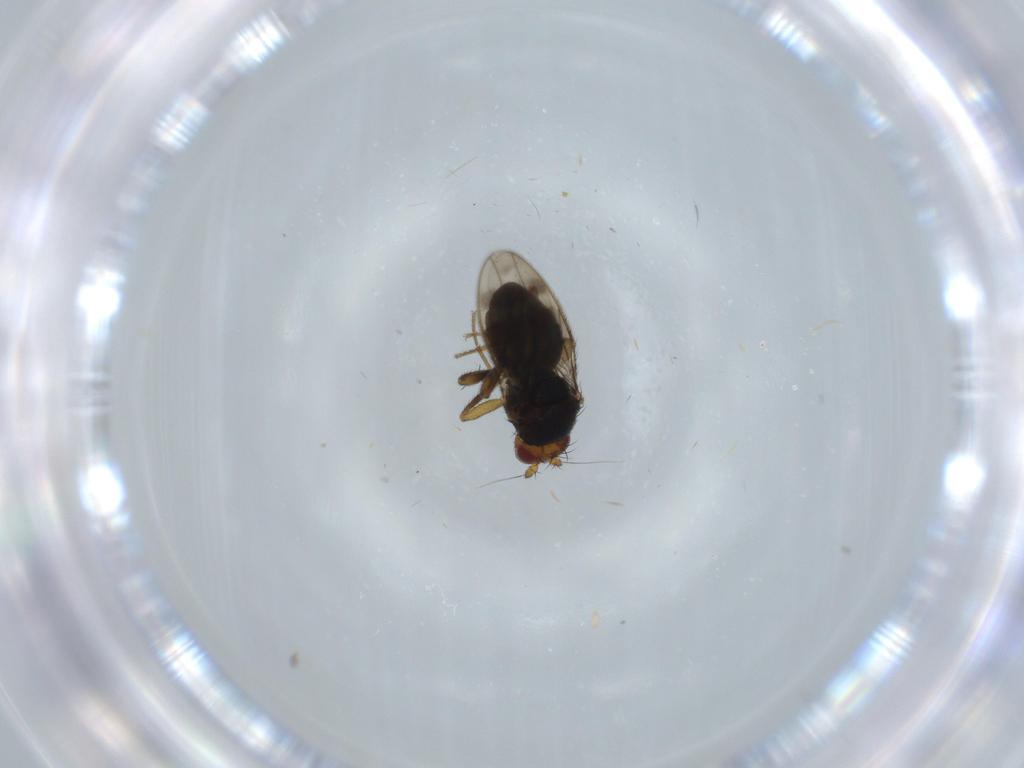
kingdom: Animalia
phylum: Arthropoda
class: Insecta
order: Diptera
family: Sphaeroceridae
